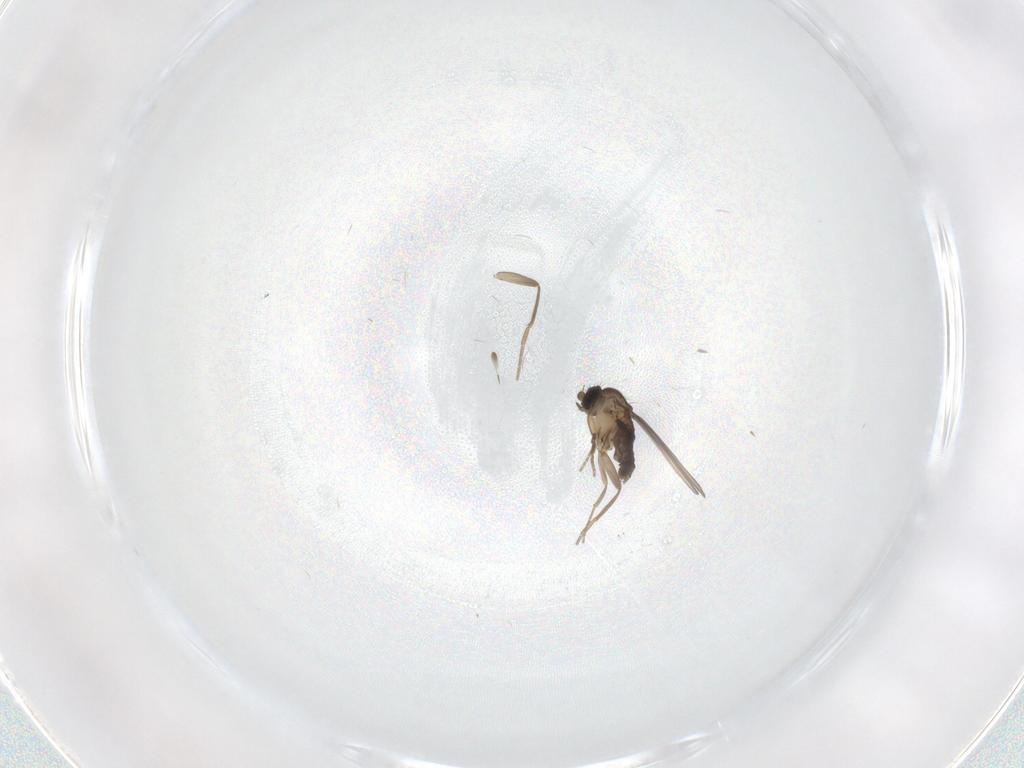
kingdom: Animalia
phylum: Arthropoda
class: Insecta
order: Diptera
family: Phoridae
